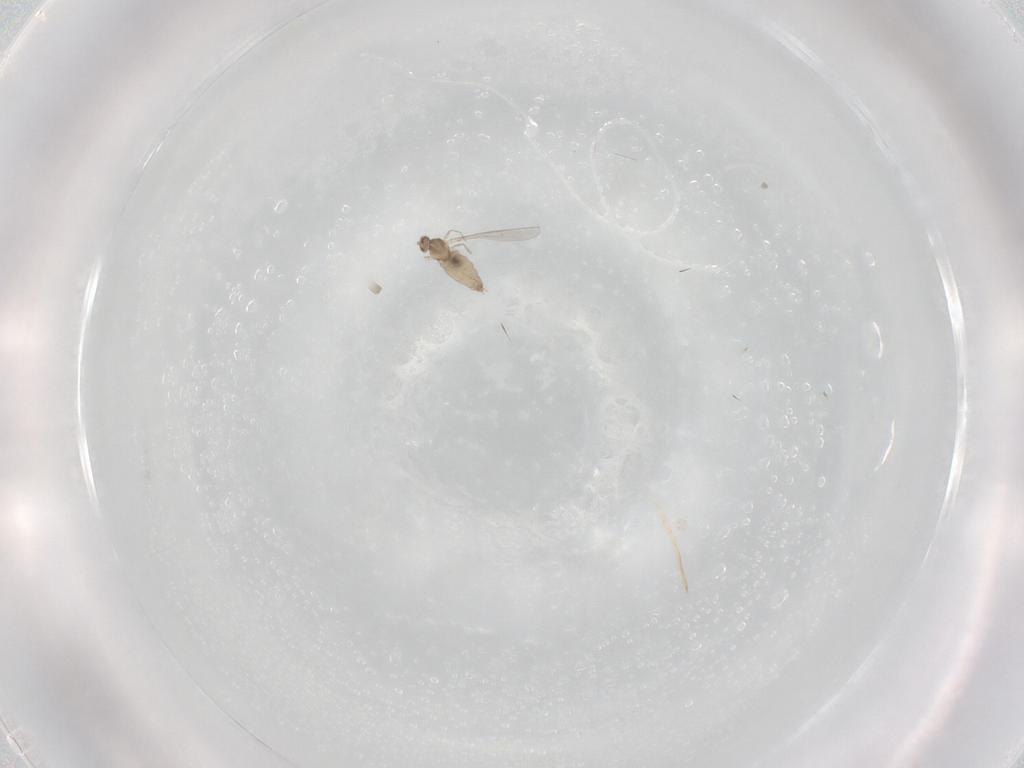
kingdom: Animalia
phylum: Arthropoda
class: Insecta
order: Diptera
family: Cecidomyiidae
